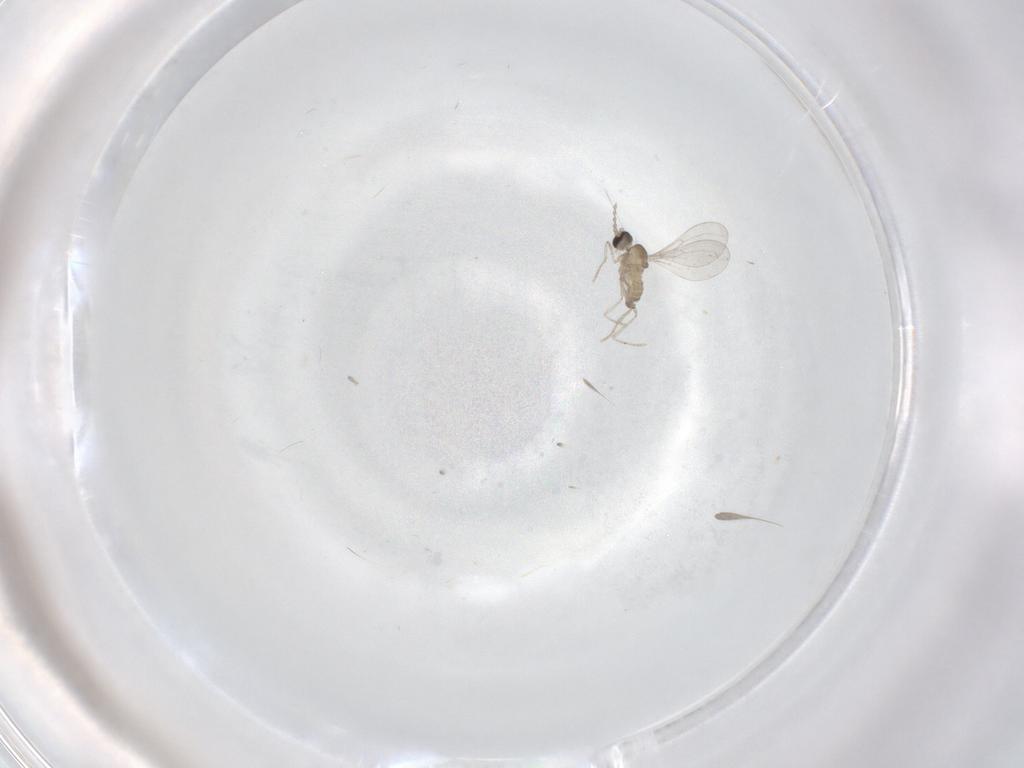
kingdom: Animalia
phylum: Arthropoda
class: Insecta
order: Diptera
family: Cecidomyiidae
